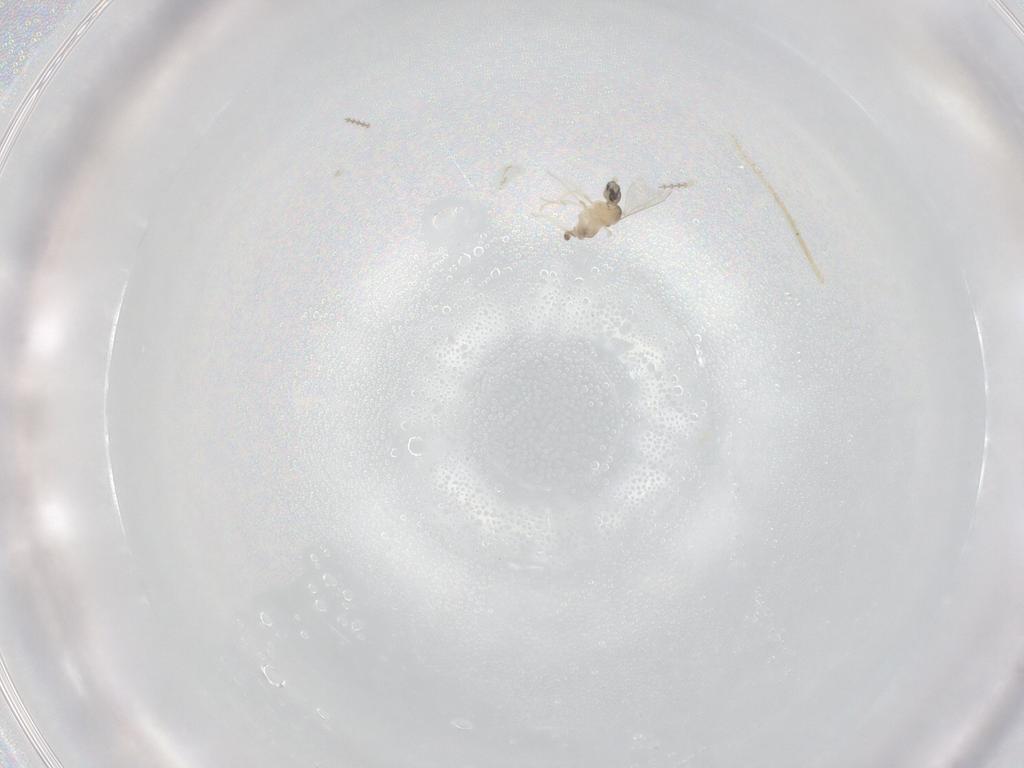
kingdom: Animalia
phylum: Arthropoda
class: Insecta
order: Diptera
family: Cecidomyiidae
